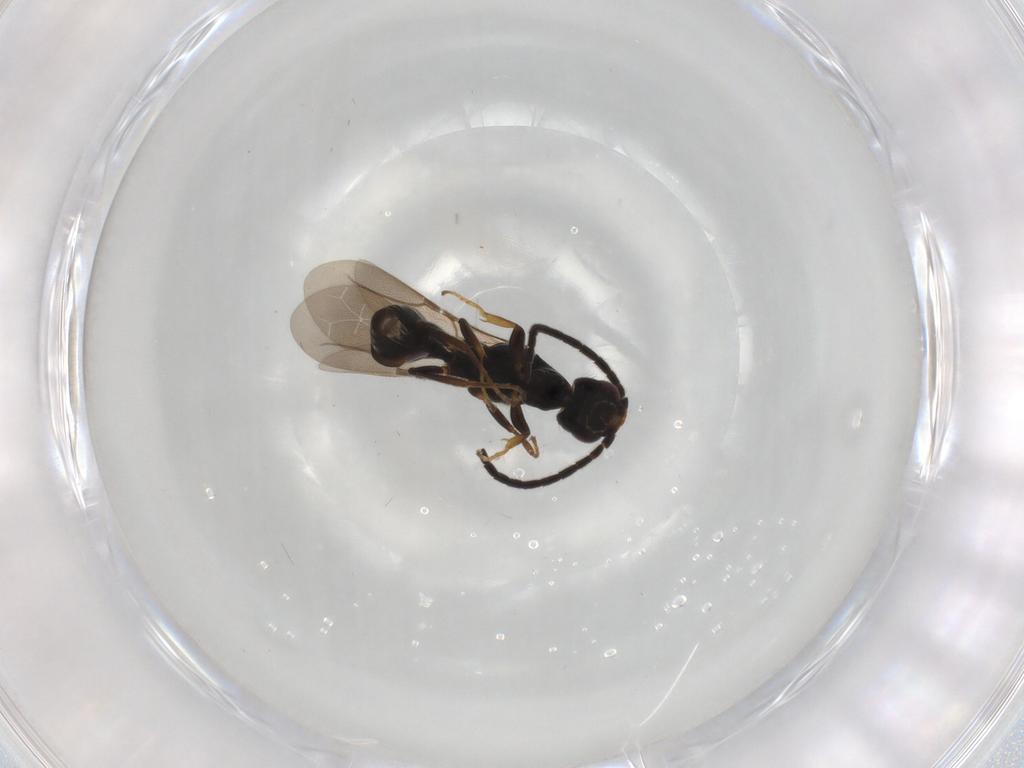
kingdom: Animalia
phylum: Arthropoda
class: Insecta
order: Hymenoptera
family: Bethylidae
